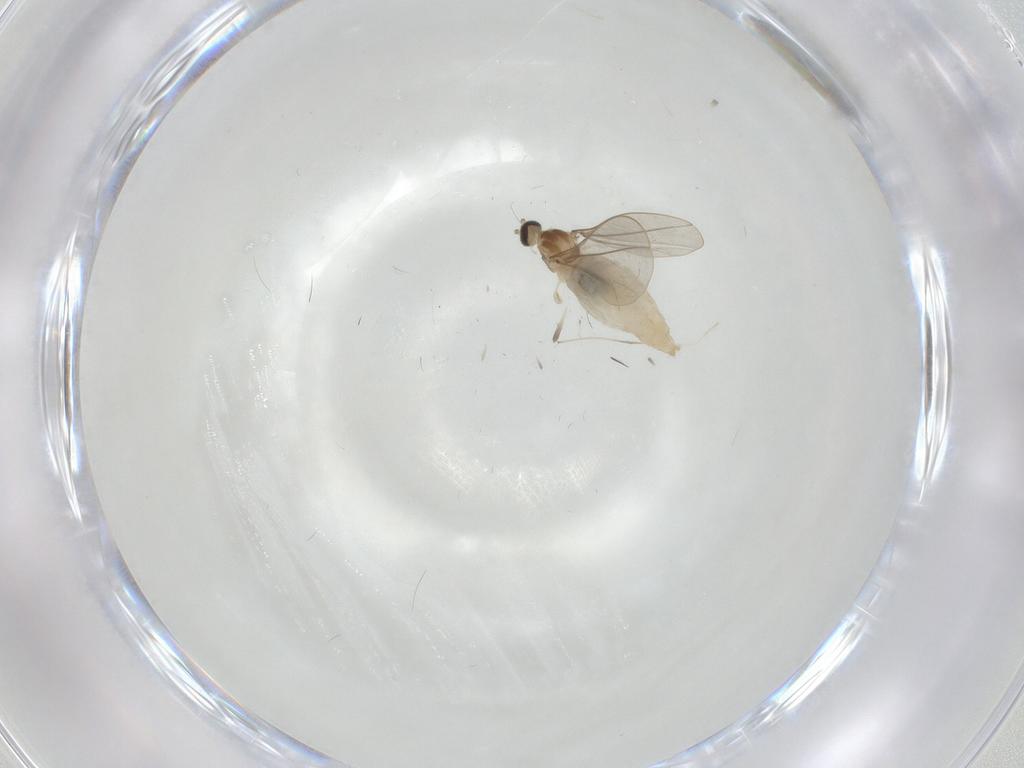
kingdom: Animalia
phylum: Arthropoda
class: Insecta
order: Diptera
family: Cecidomyiidae
